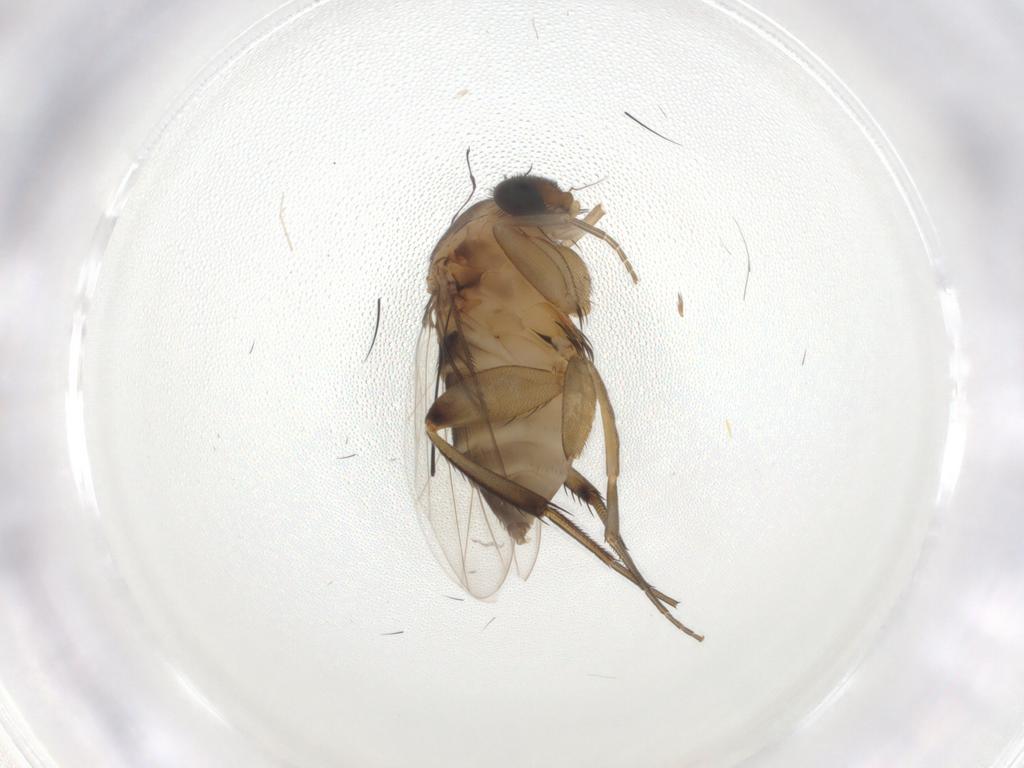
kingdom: Animalia
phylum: Arthropoda
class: Insecta
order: Diptera
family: Phoridae
